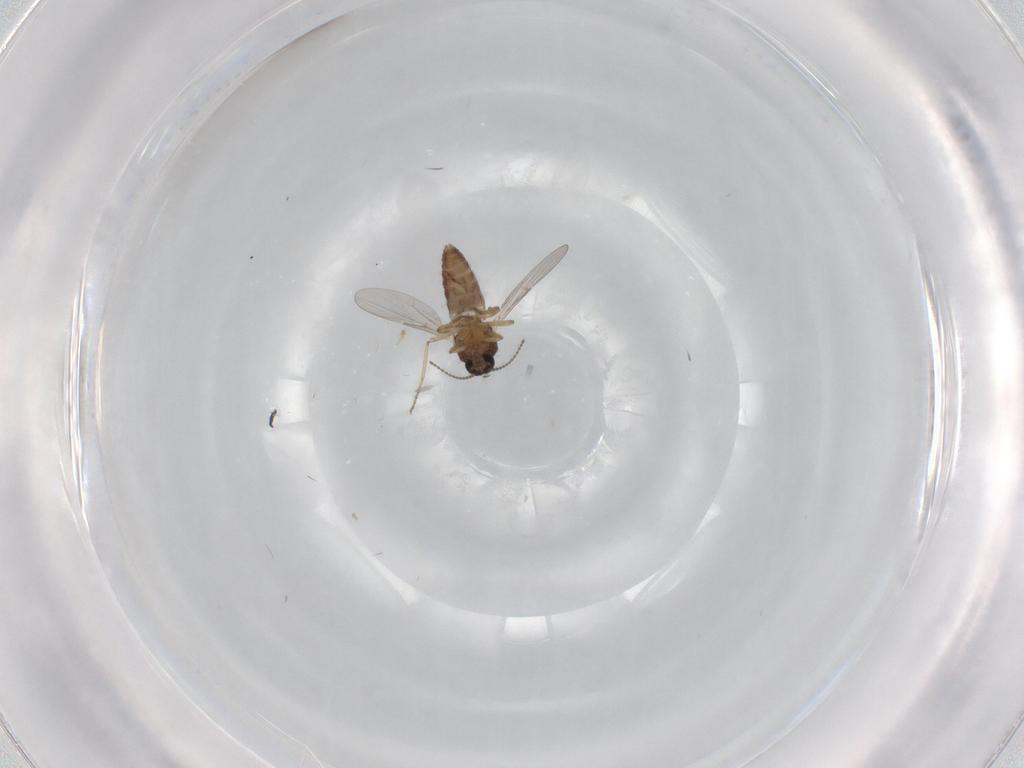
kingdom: Animalia
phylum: Arthropoda
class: Insecta
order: Diptera
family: Ceratopogonidae
